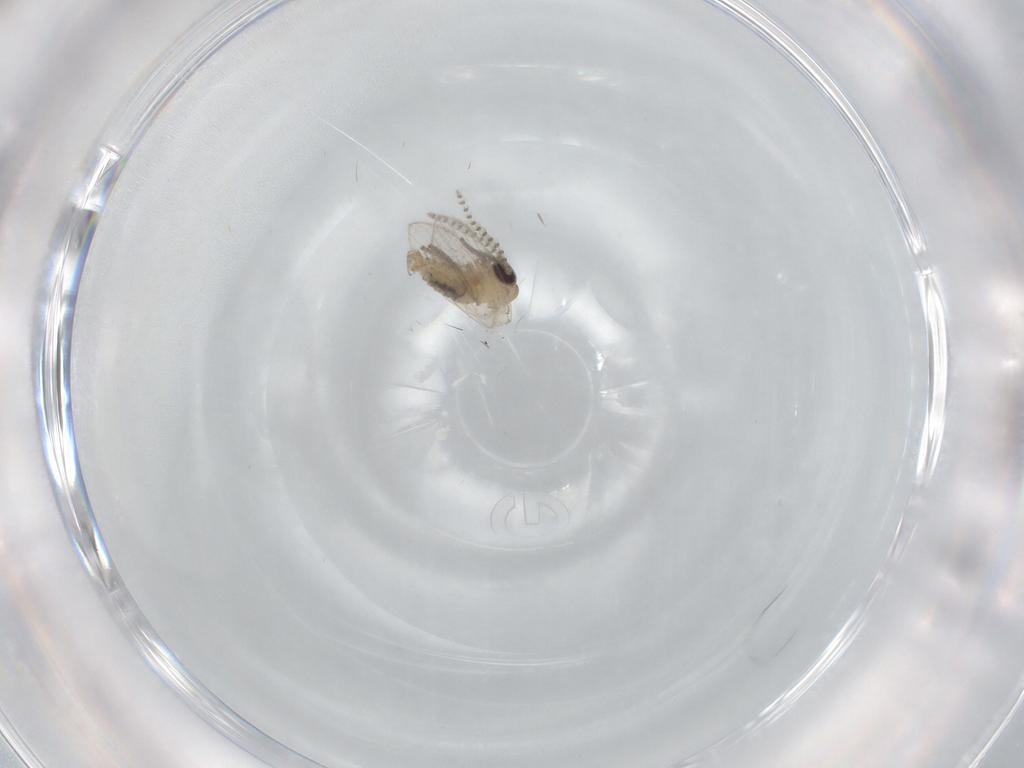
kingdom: Animalia
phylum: Arthropoda
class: Insecta
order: Diptera
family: Psychodidae
